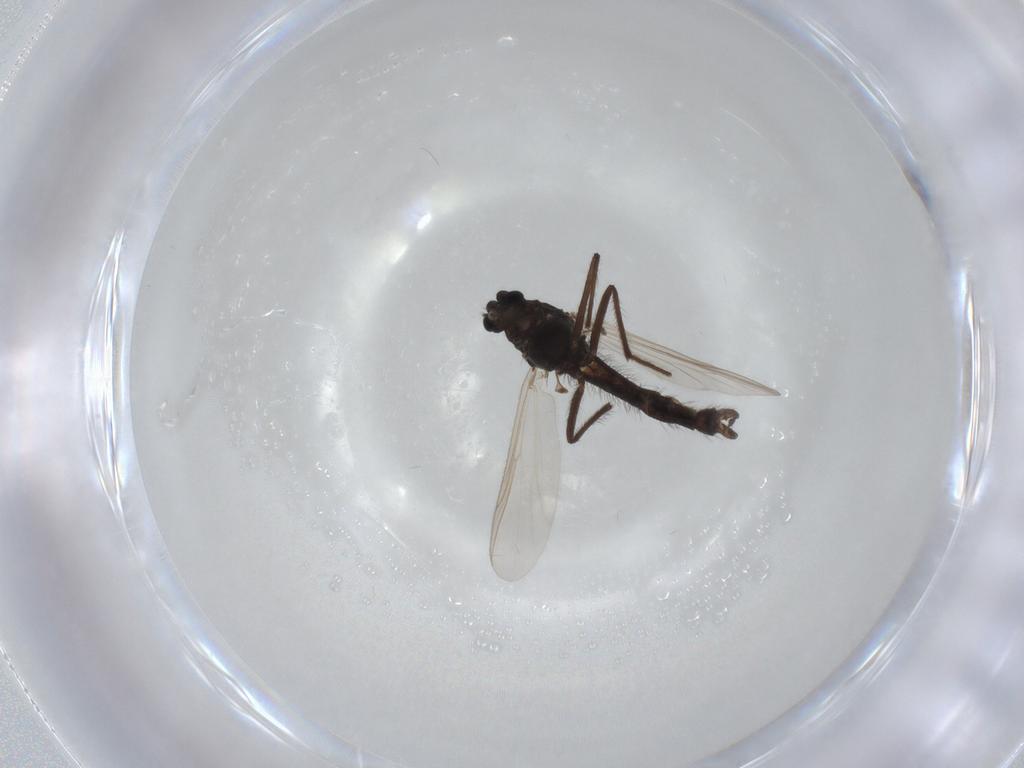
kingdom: Animalia
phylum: Arthropoda
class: Insecta
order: Diptera
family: Chironomidae
